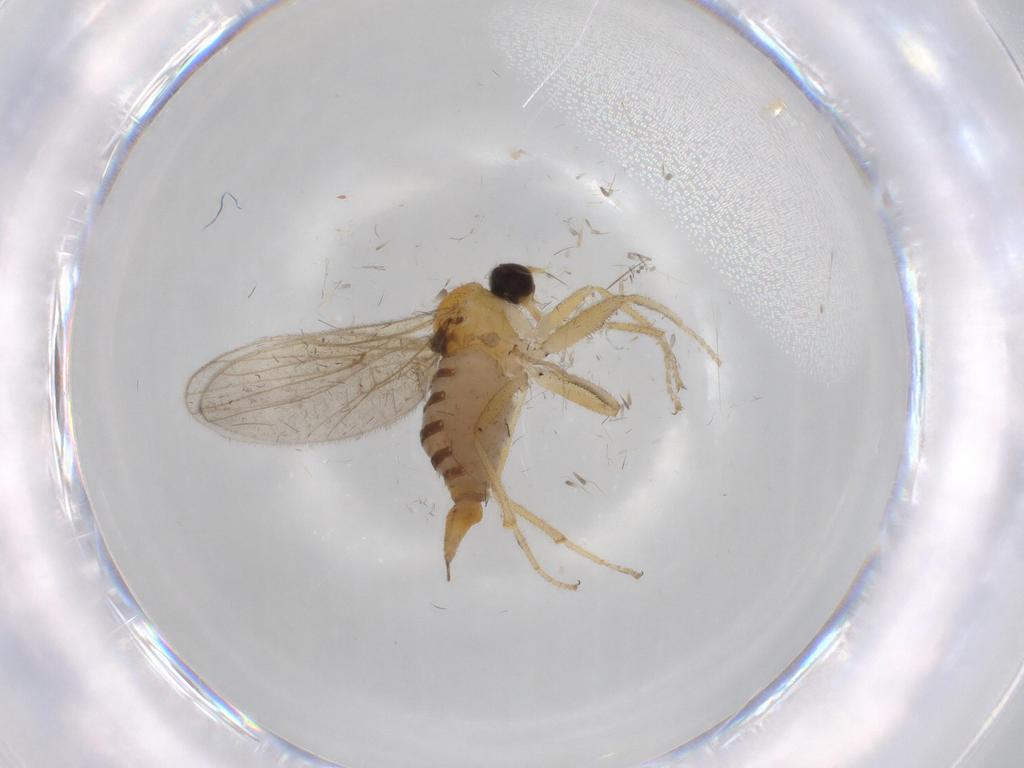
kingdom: Animalia
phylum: Arthropoda
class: Insecta
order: Diptera
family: Hybotidae
